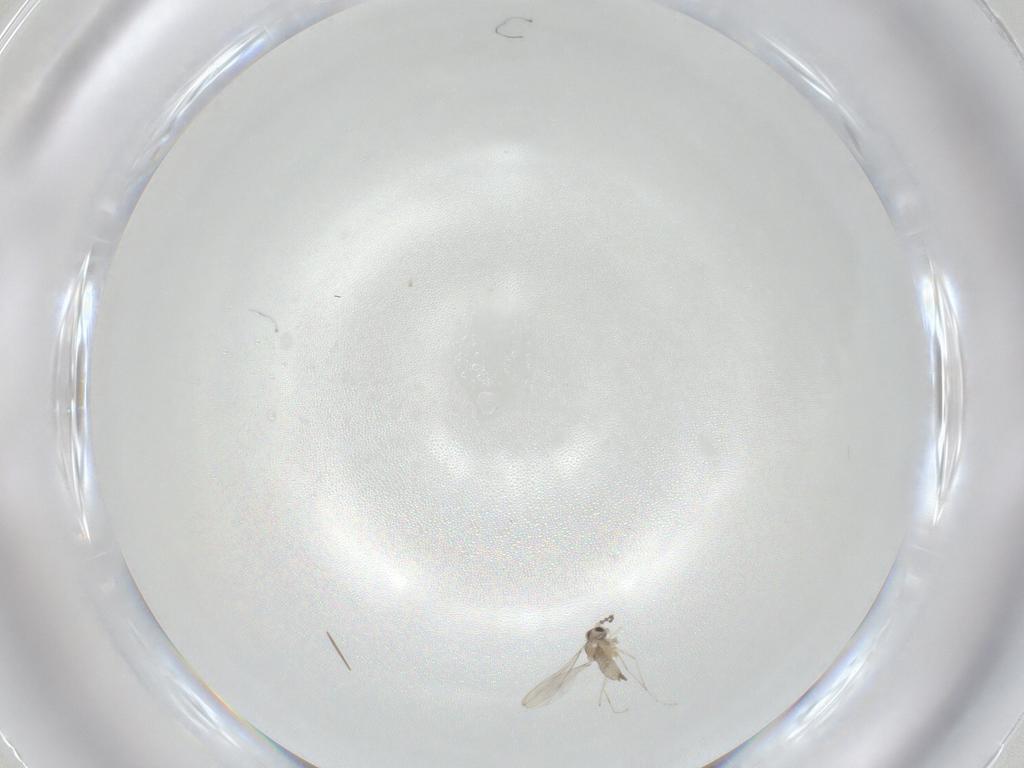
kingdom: Animalia
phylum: Arthropoda
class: Insecta
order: Diptera
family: Cecidomyiidae
